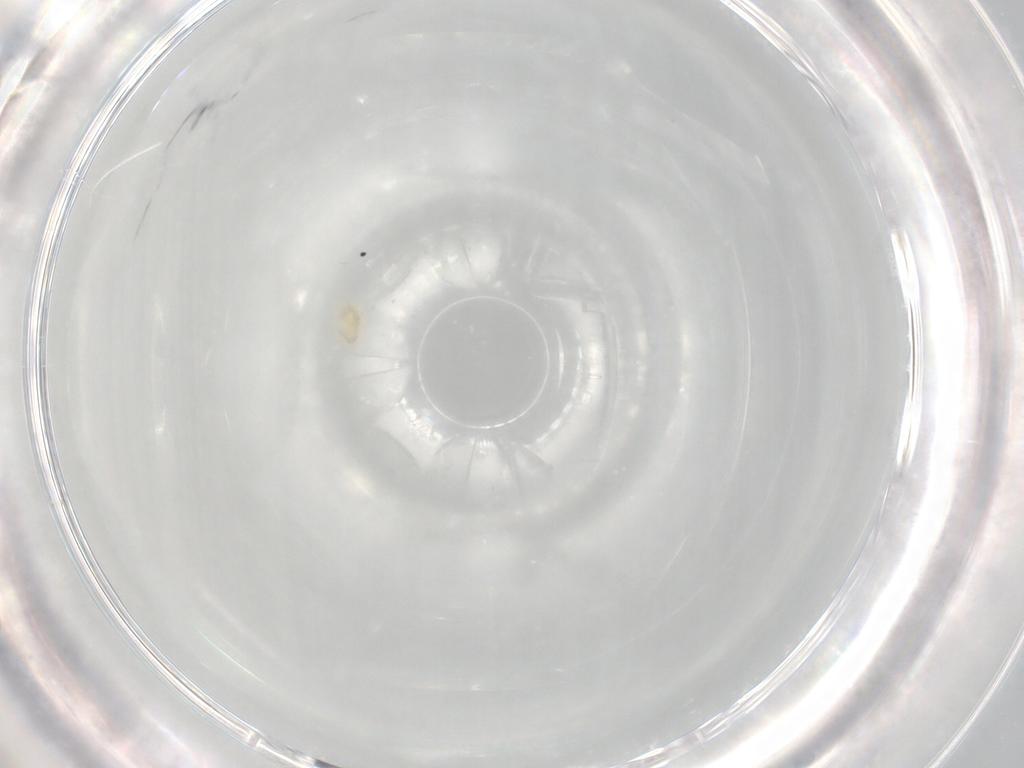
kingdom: Animalia
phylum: Arthropoda
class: Arachnida
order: Trombidiformes
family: Tydeidae
